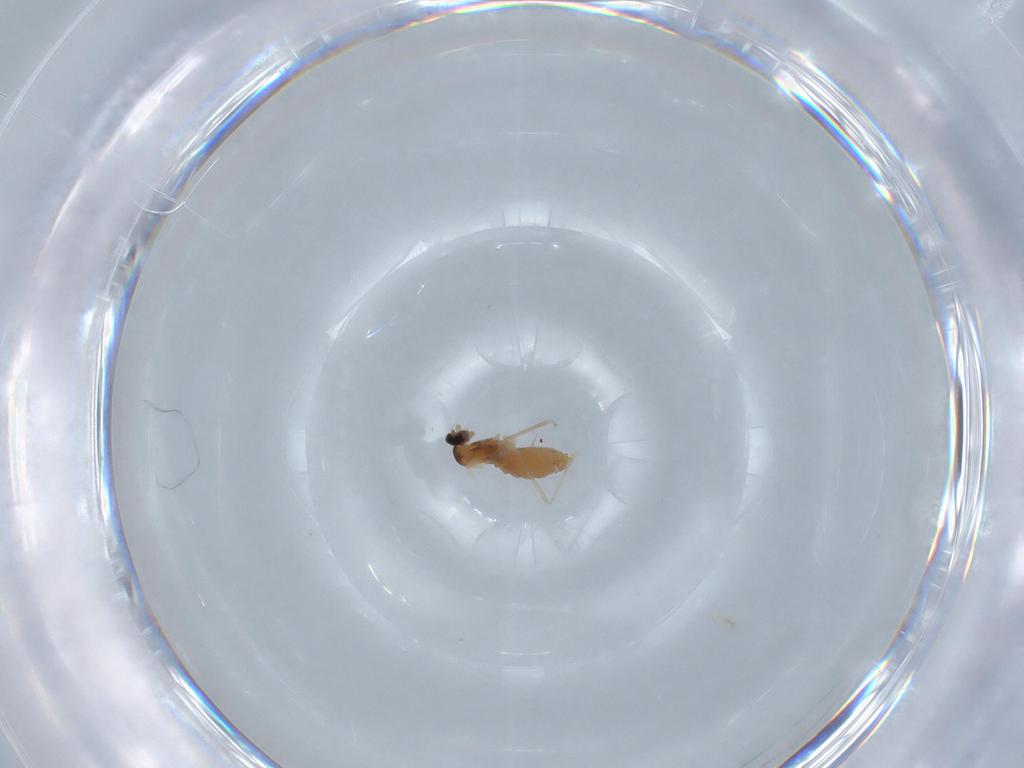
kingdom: Animalia
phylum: Arthropoda
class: Insecta
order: Diptera
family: Cecidomyiidae
